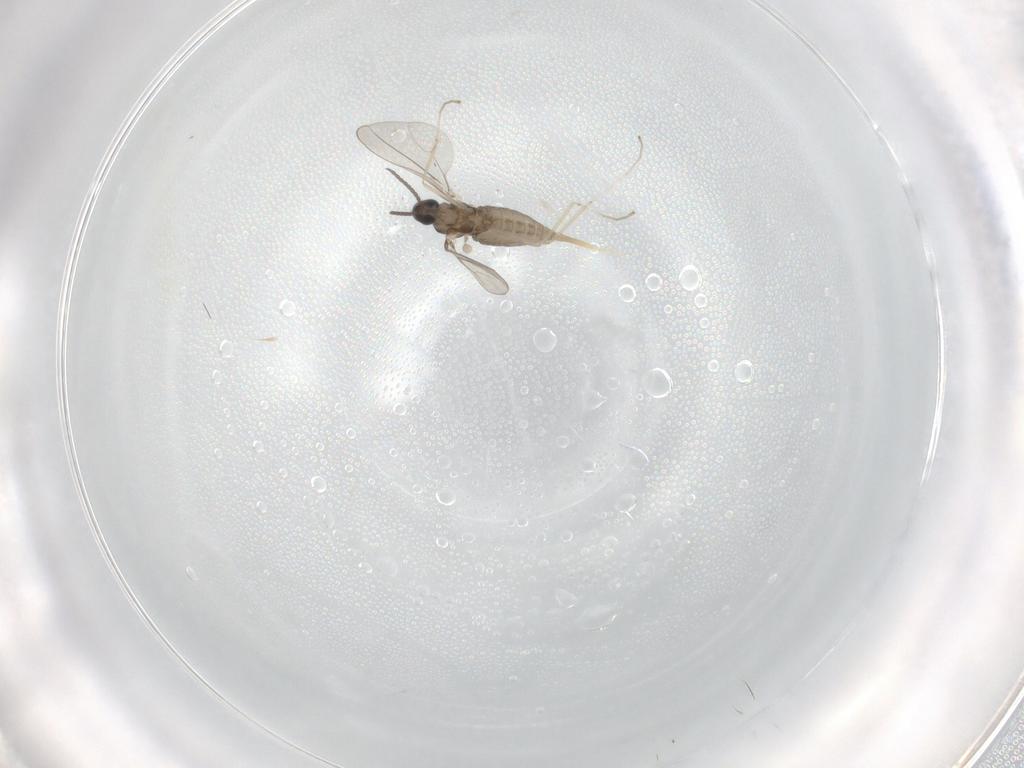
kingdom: Animalia
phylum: Arthropoda
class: Insecta
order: Diptera
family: Cecidomyiidae
